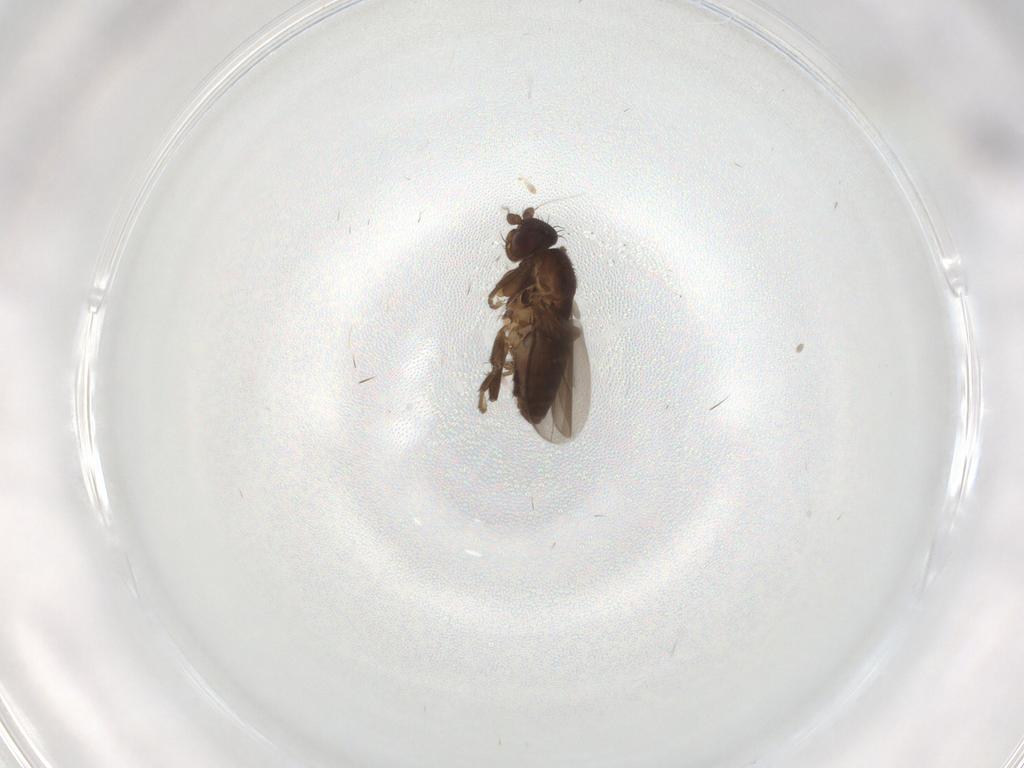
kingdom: Animalia
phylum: Arthropoda
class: Insecta
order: Diptera
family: Sphaeroceridae
